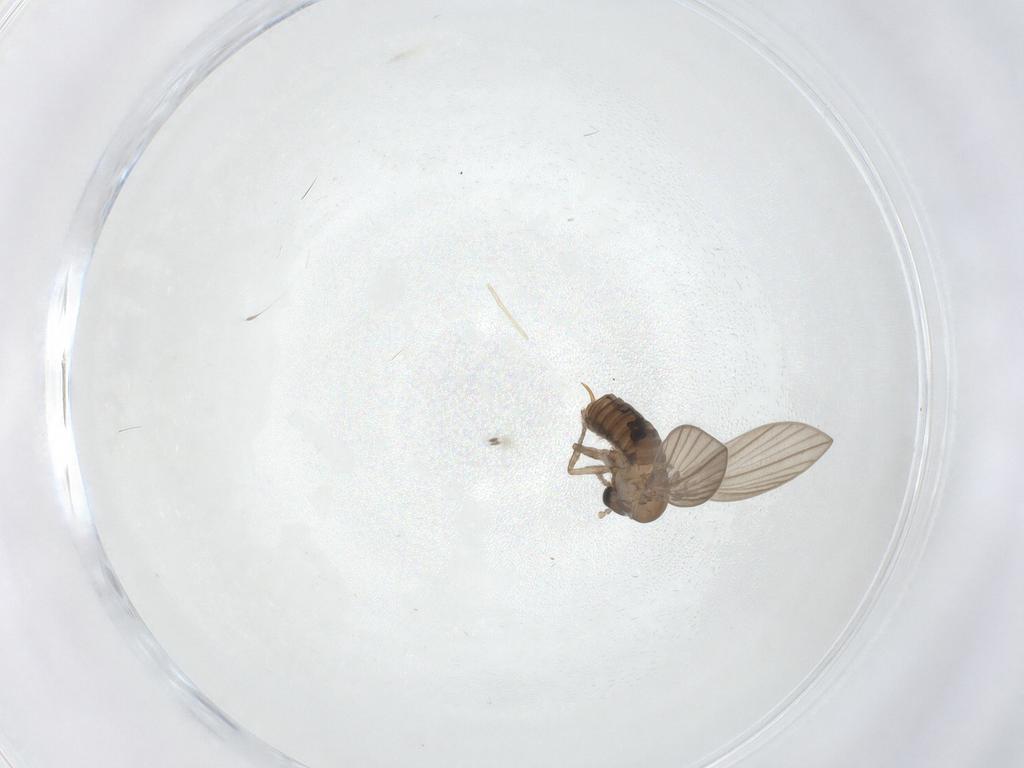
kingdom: Animalia
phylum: Arthropoda
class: Insecta
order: Diptera
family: Psychodidae
